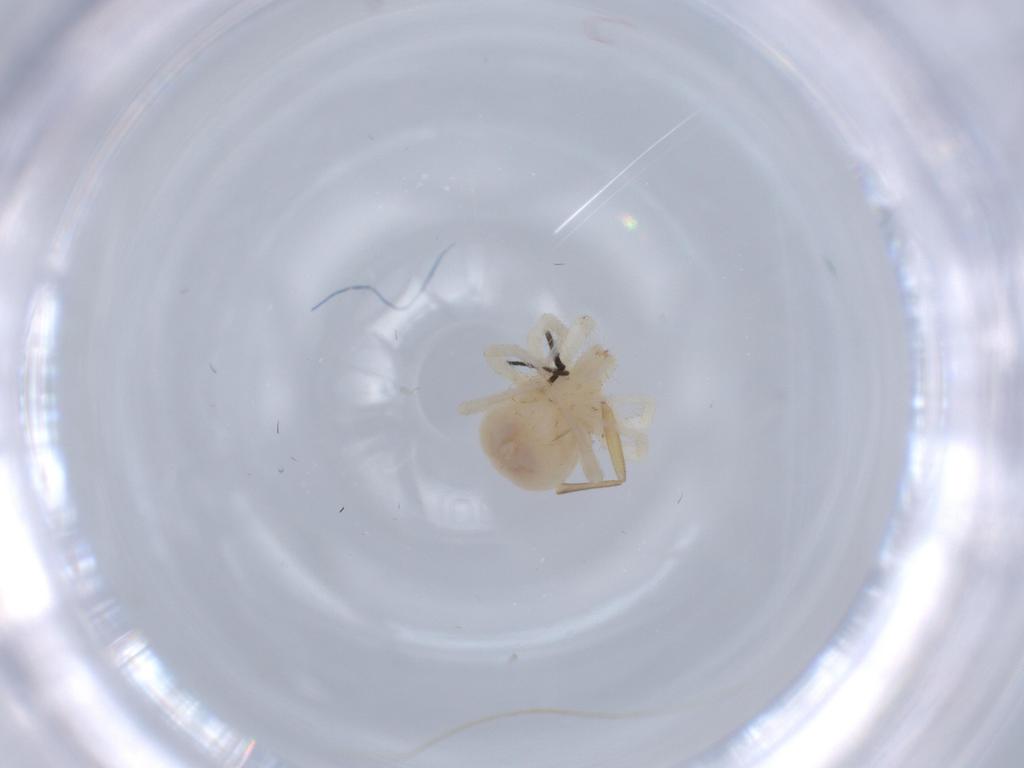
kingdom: Animalia
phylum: Arthropoda
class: Arachnida
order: Trombidiformes
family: Anystidae
